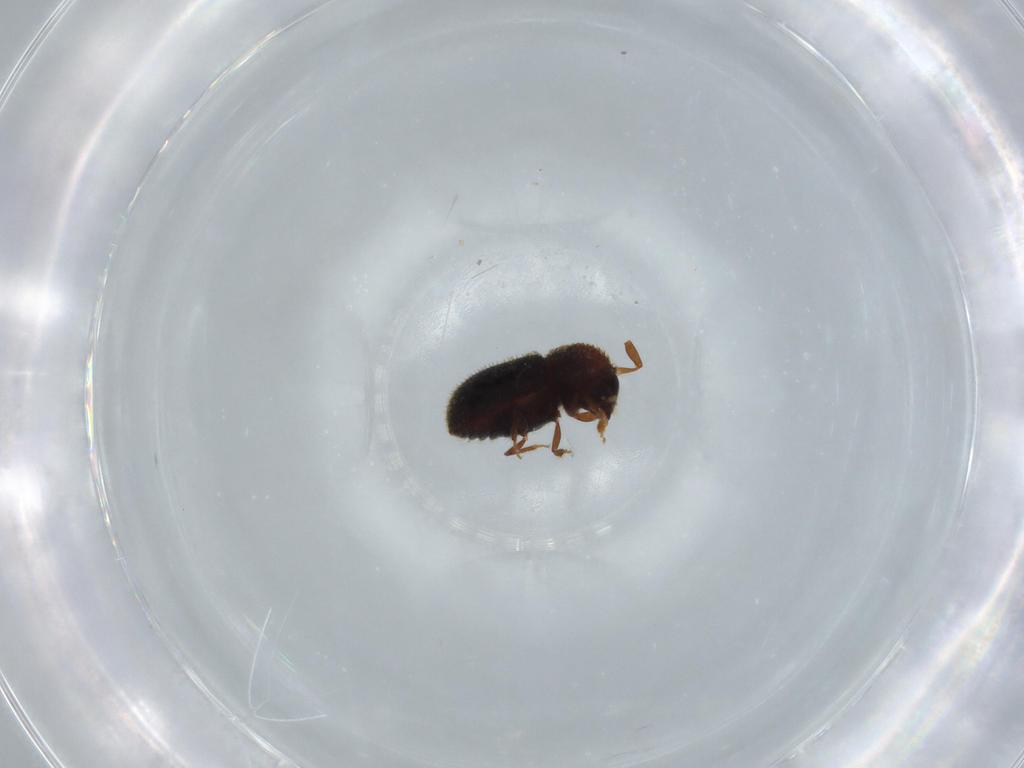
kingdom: Animalia
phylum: Arthropoda
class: Insecta
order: Coleoptera
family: Curculionidae
